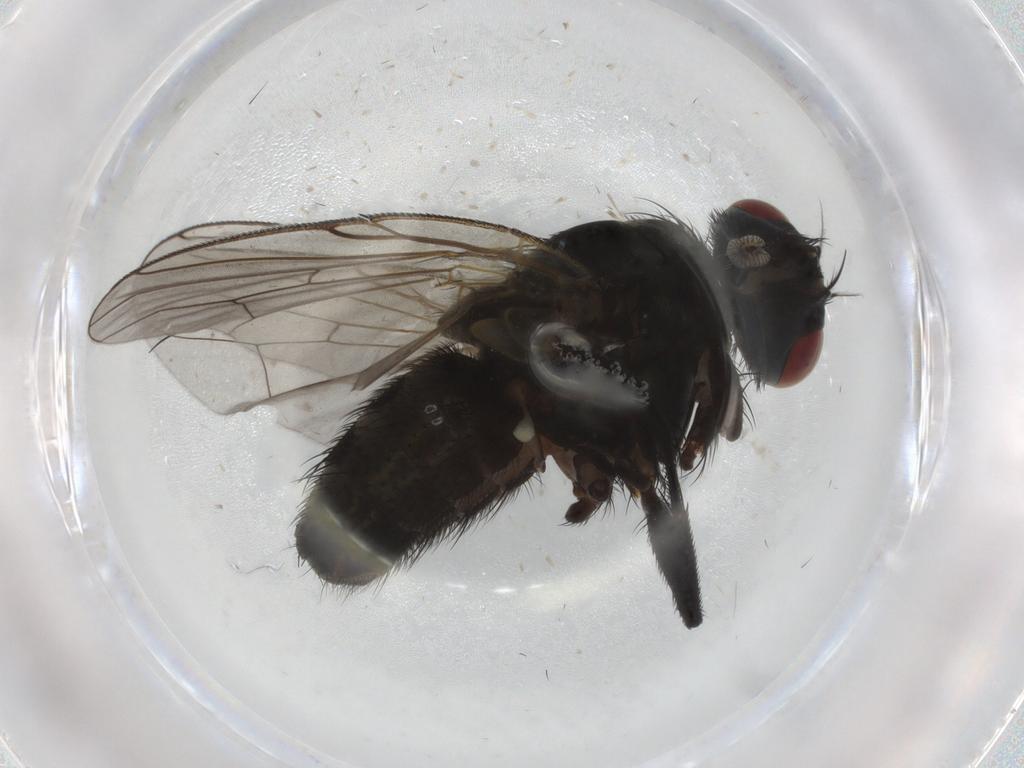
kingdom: Animalia
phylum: Arthropoda
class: Insecta
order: Diptera
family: Muscidae
